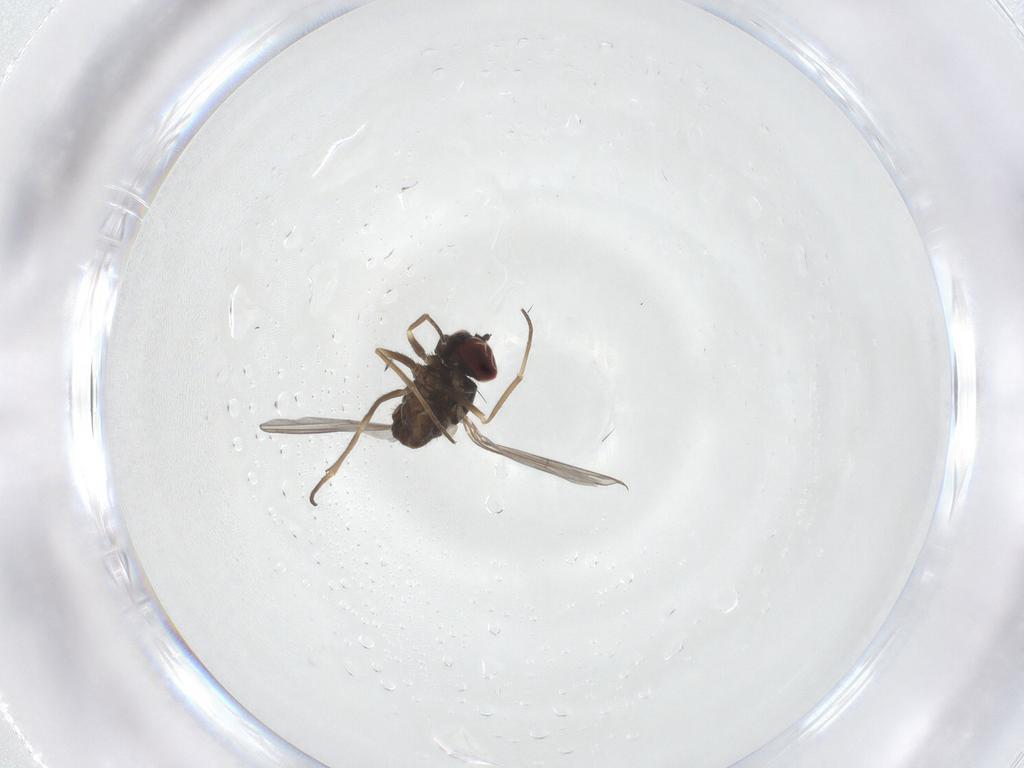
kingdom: Animalia
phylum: Arthropoda
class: Insecta
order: Diptera
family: Dolichopodidae
